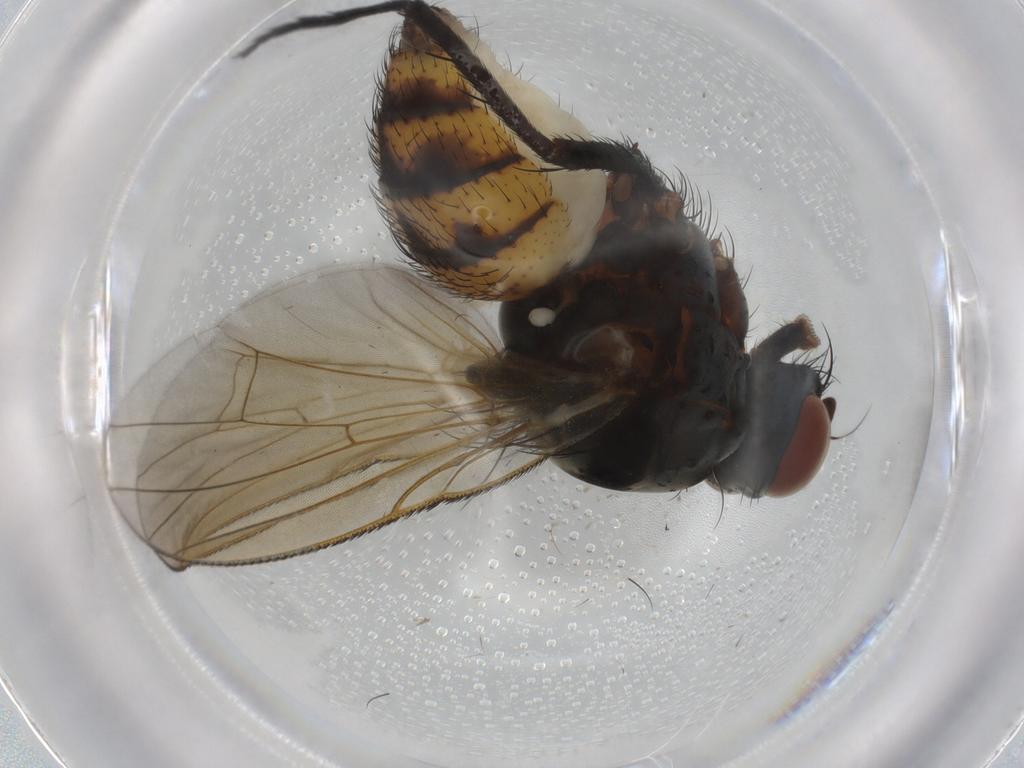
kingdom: Animalia
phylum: Arthropoda
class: Insecta
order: Diptera
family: Anthomyiidae
